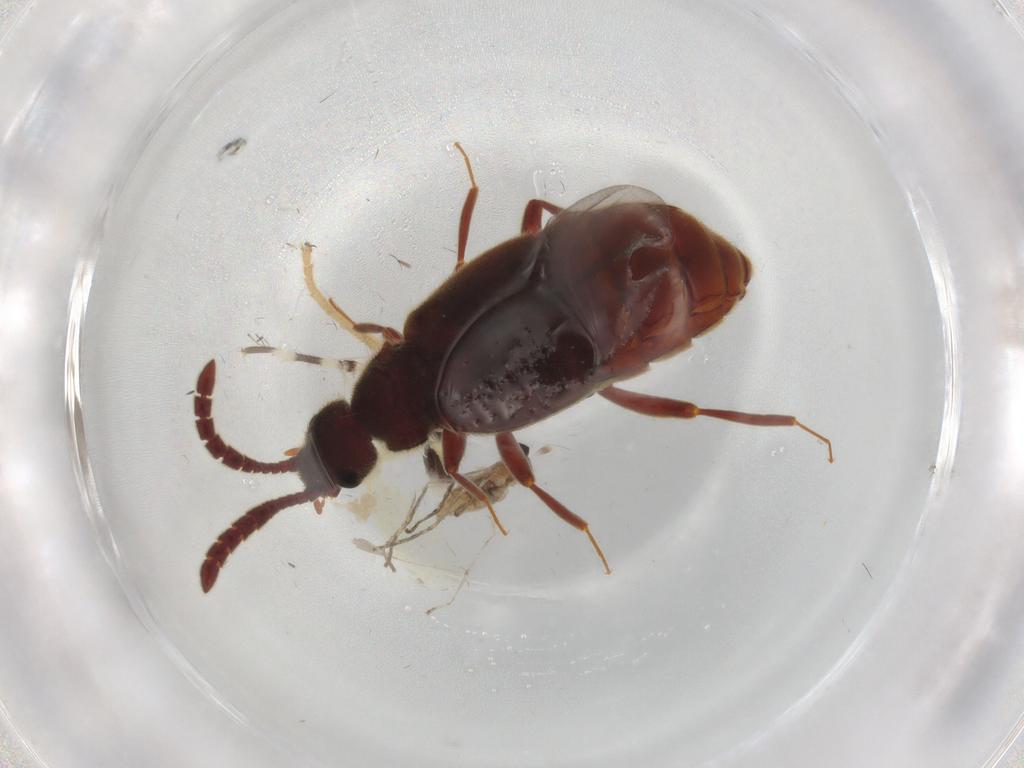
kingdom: Animalia
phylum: Arthropoda
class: Insecta
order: Coleoptera
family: Staphylinidae
